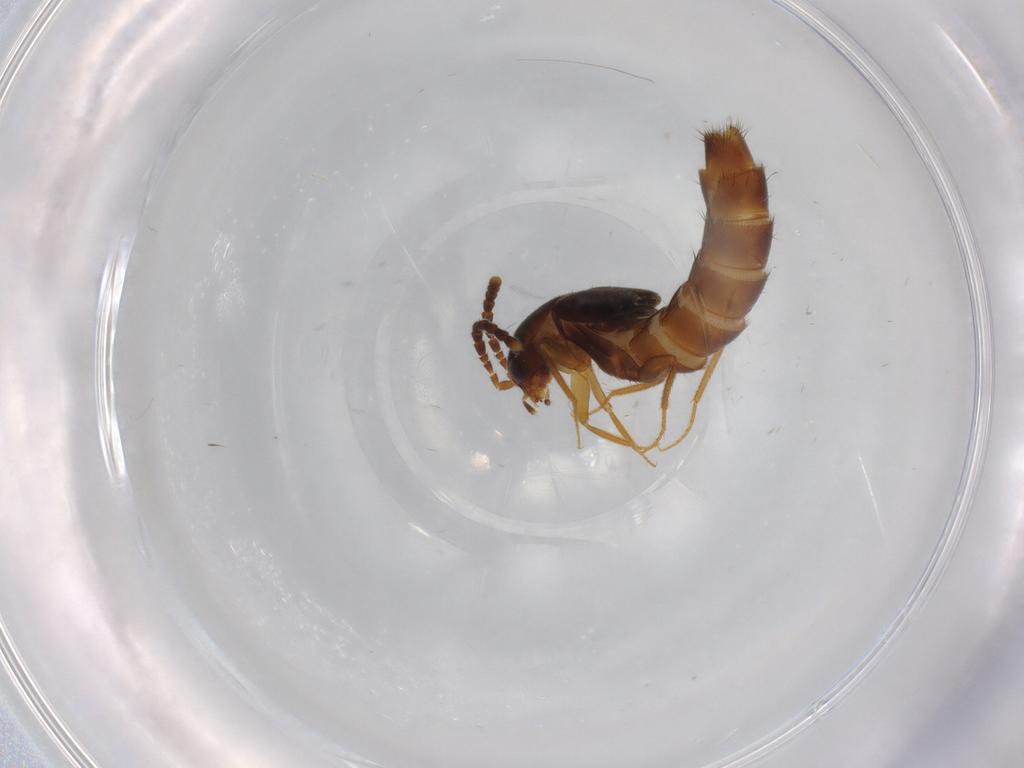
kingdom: Animalia
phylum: Arthropoda
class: Insecta
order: Coleoptera
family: Staphylinidae
